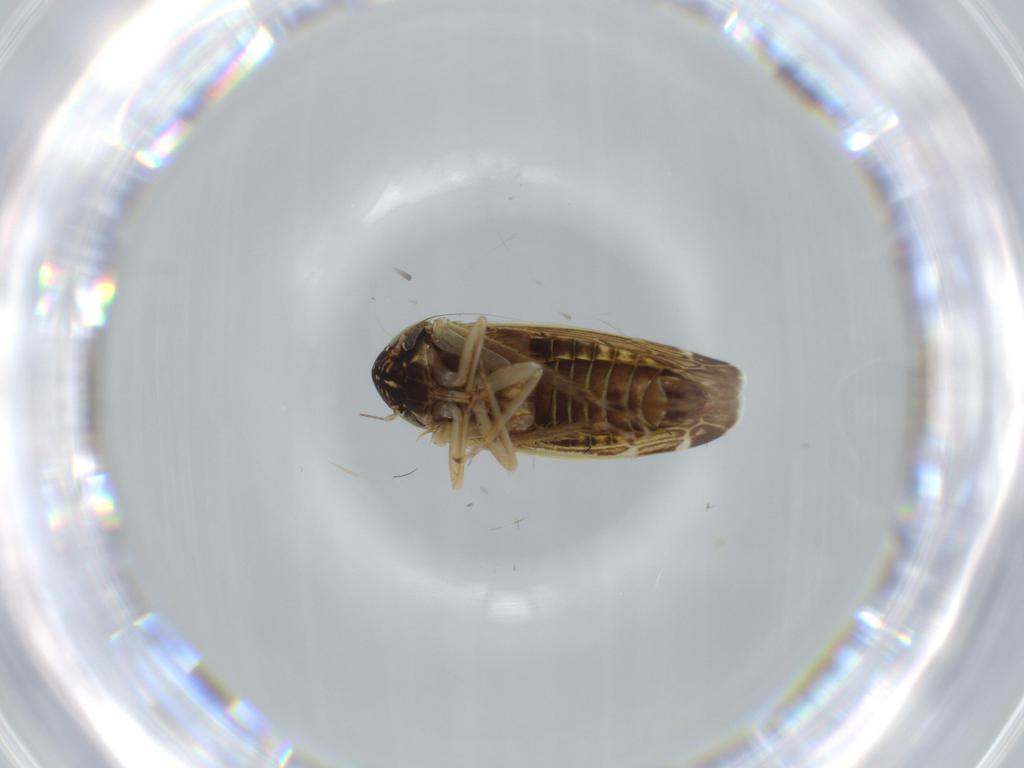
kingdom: Animalia
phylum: Arthropoda
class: Insecta
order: Hemiptera
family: Cicadellidae
